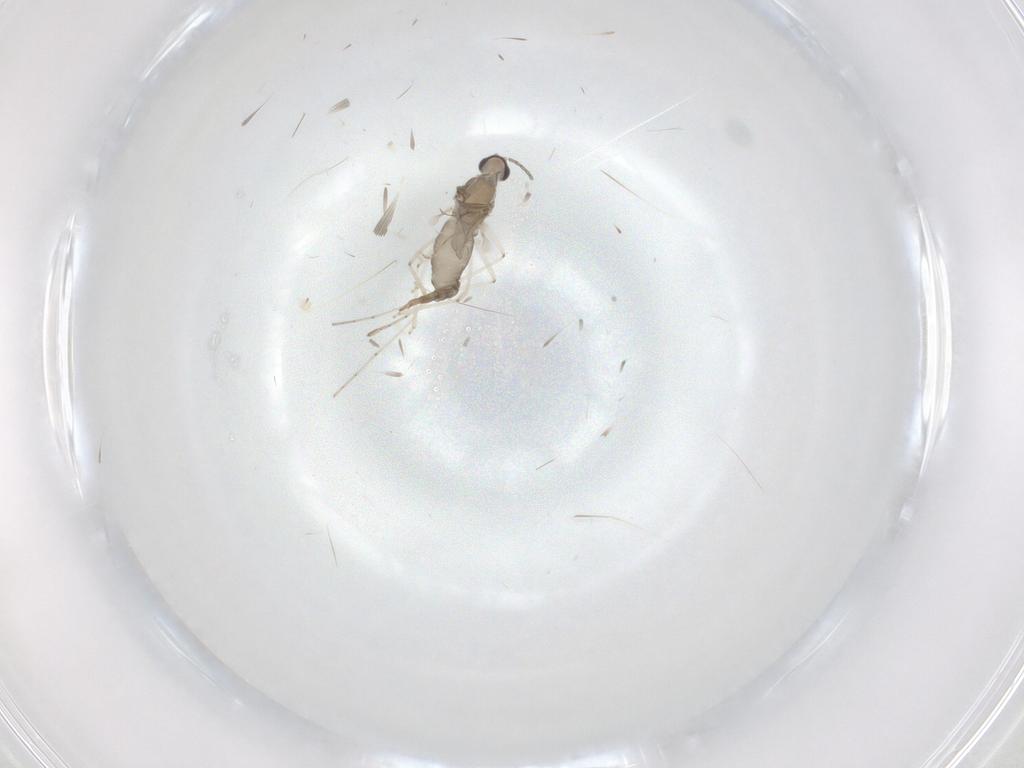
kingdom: Animalia
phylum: Arthropoda
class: Insecta
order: Diptera
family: Cecidomyiidae
